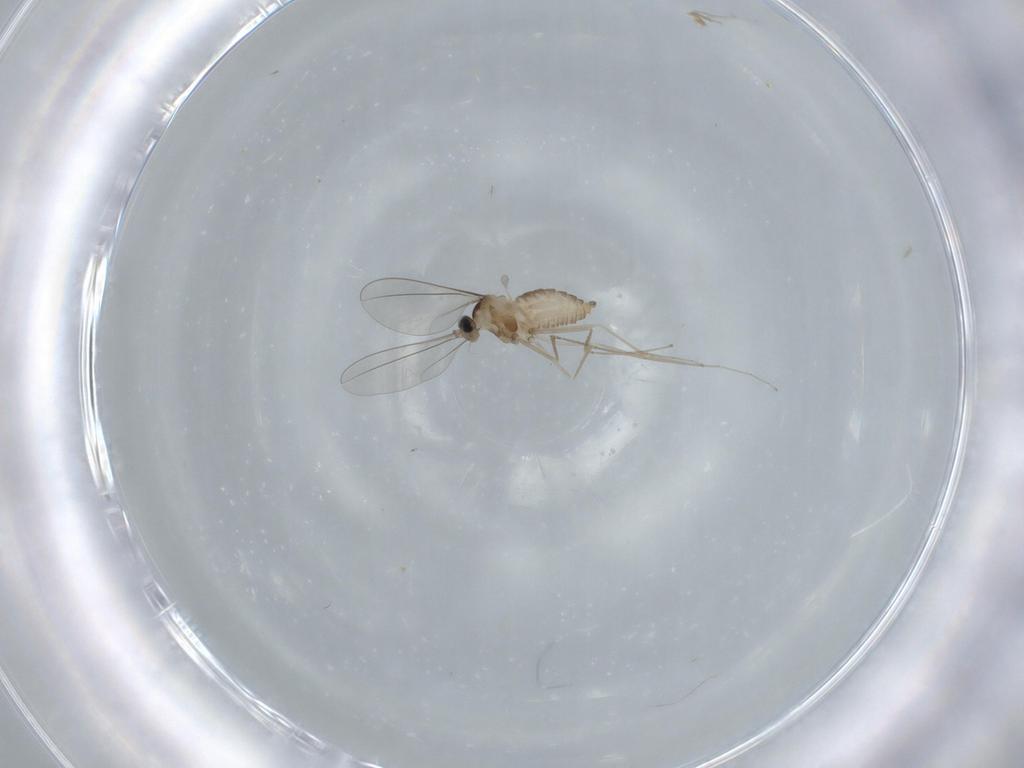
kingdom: Animalia
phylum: Arthropoda
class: Insecta
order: Diptera
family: Cecidomyiidae
